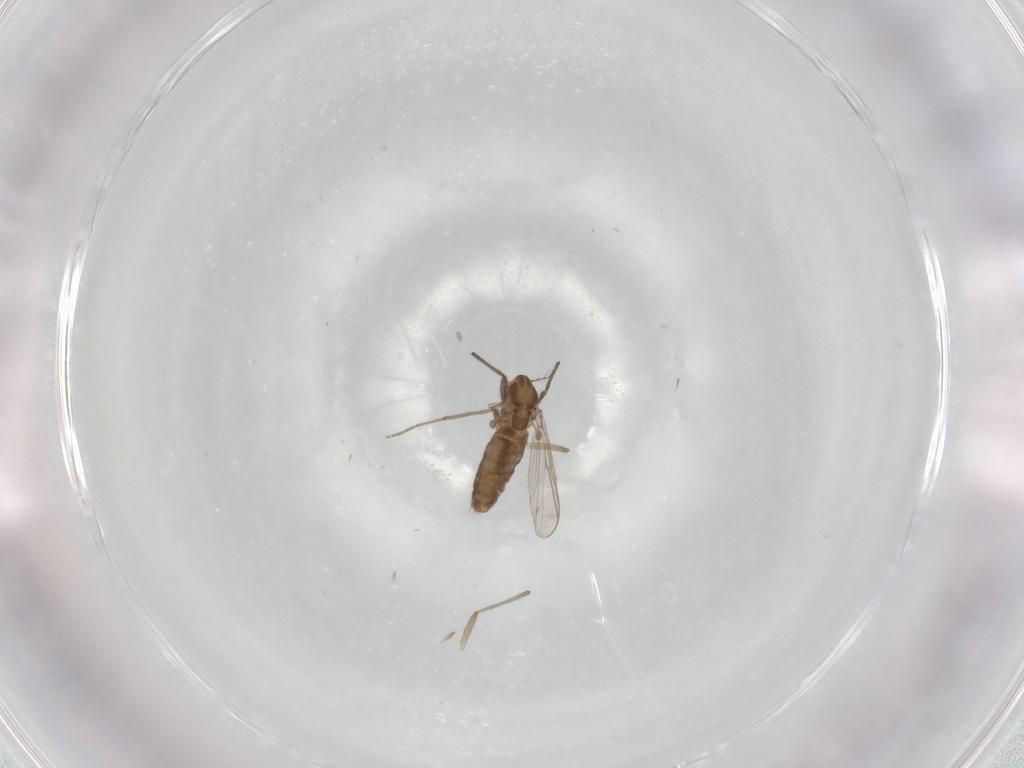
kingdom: Animalia
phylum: Arthropoda
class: Insecta
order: Diptera
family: Chironomidae
